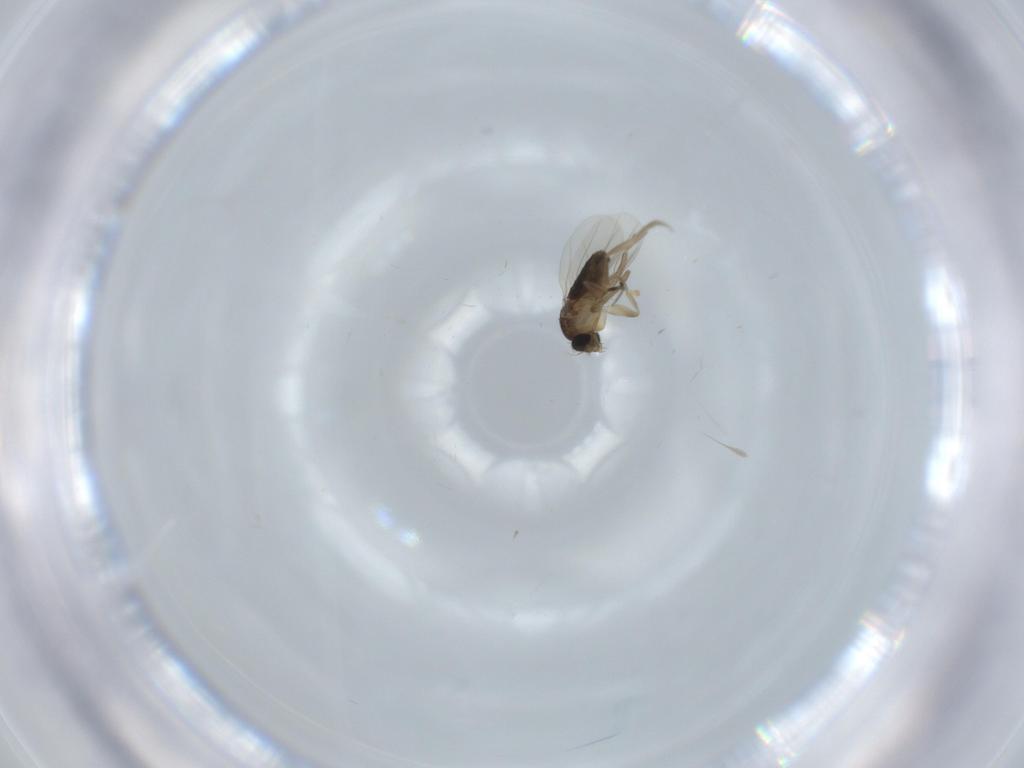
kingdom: Animalia
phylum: Arthropoda
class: Insecta
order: Diptera
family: Phoridae
